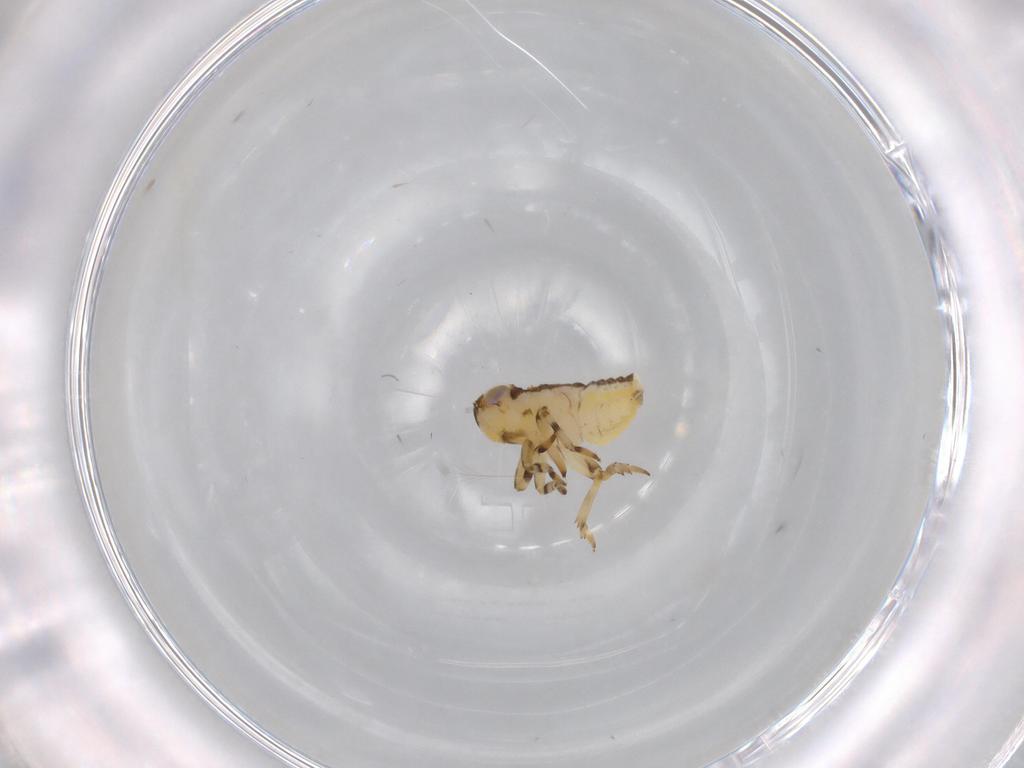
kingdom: Animalia
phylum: Arthropoda
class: Insecta
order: Hemiptera
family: Issidae
